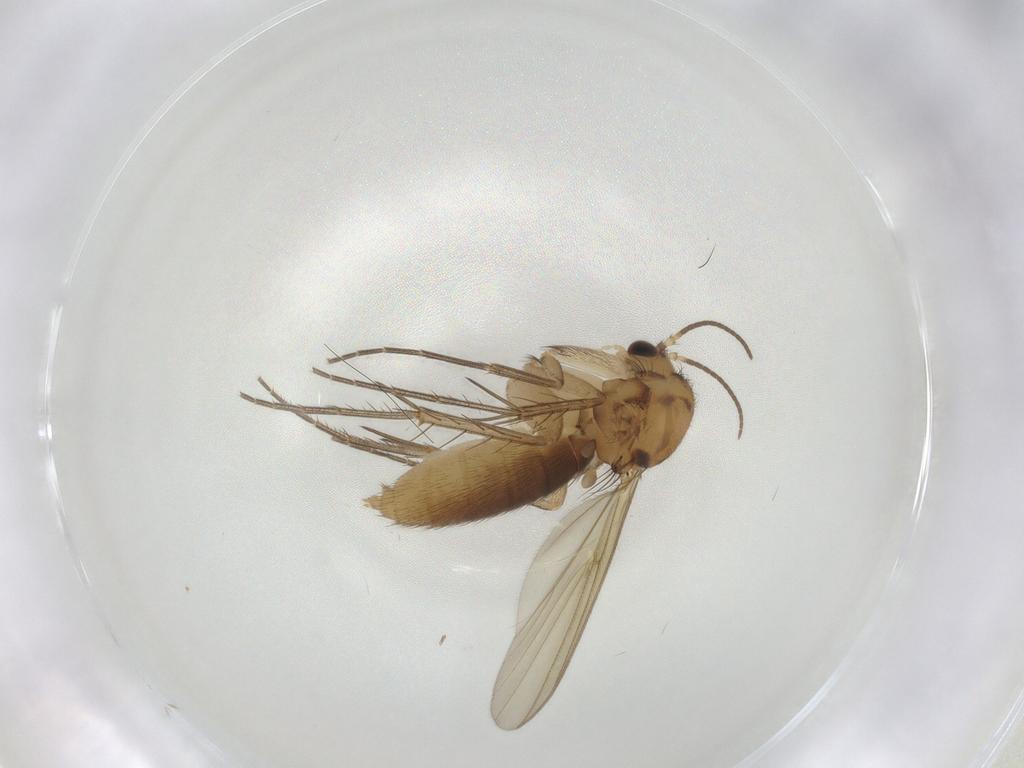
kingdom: Animalia
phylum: Arthropoda
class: Insecta
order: Diptera
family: Mycetophilidae
